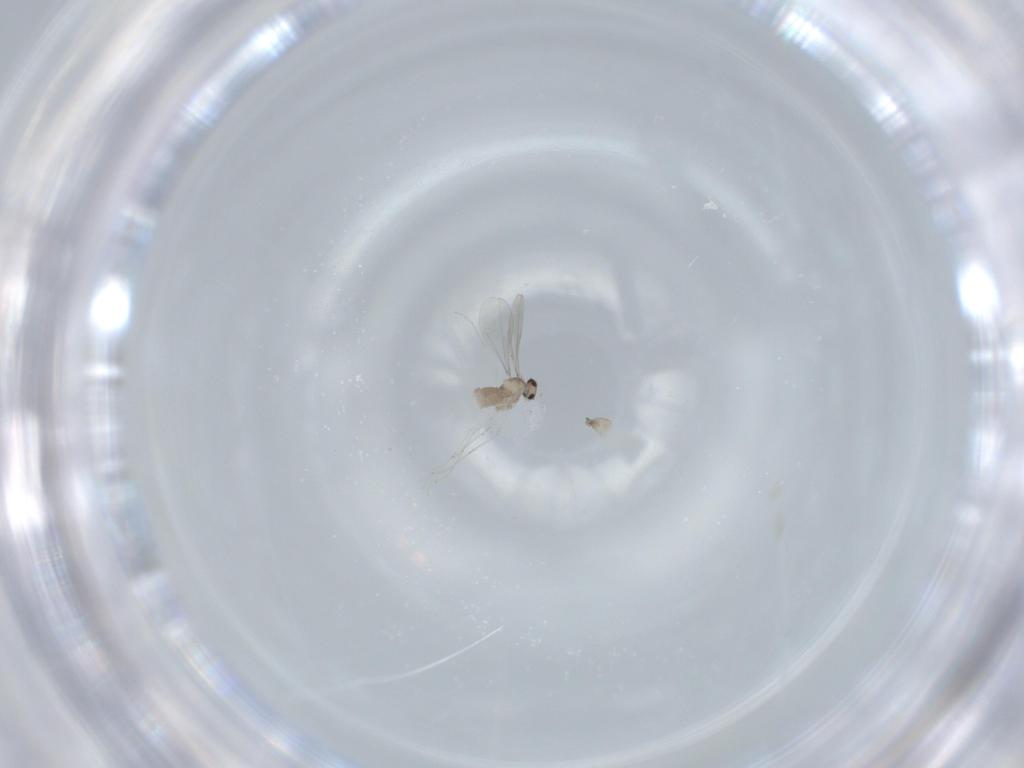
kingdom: Animalia
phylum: Arthropoda
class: Insecta
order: Diptera
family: Cecidomyiidae
